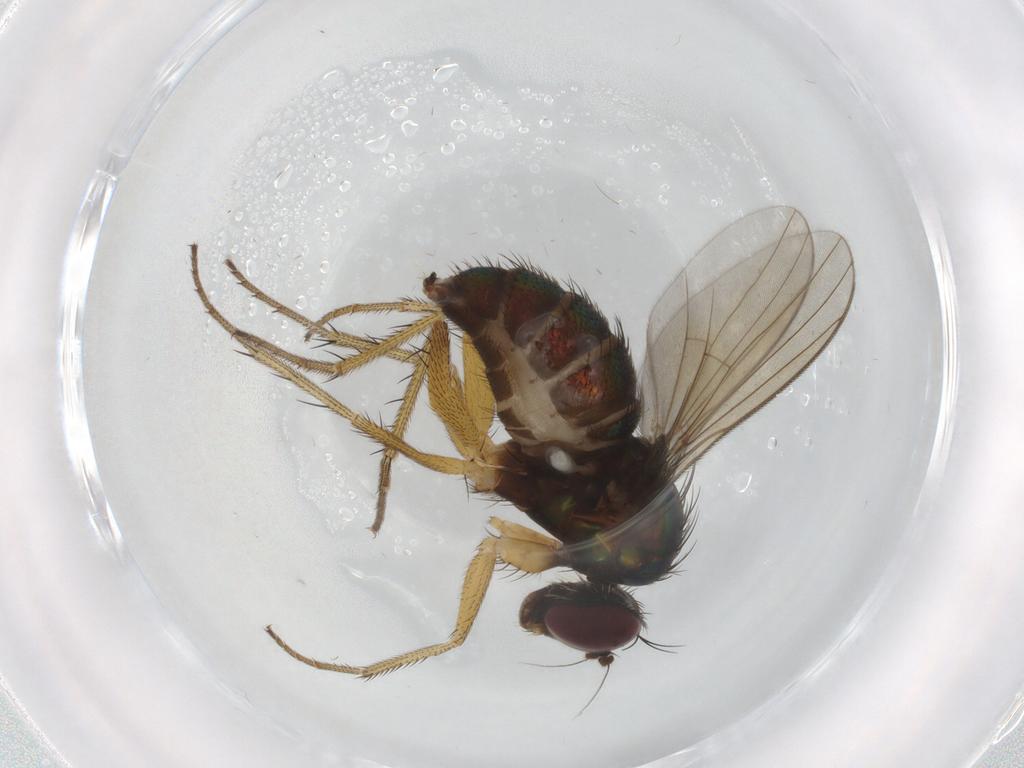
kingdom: Animalia
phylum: Arthropoda
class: Insecta
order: Diptera
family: Dolichopodidae
